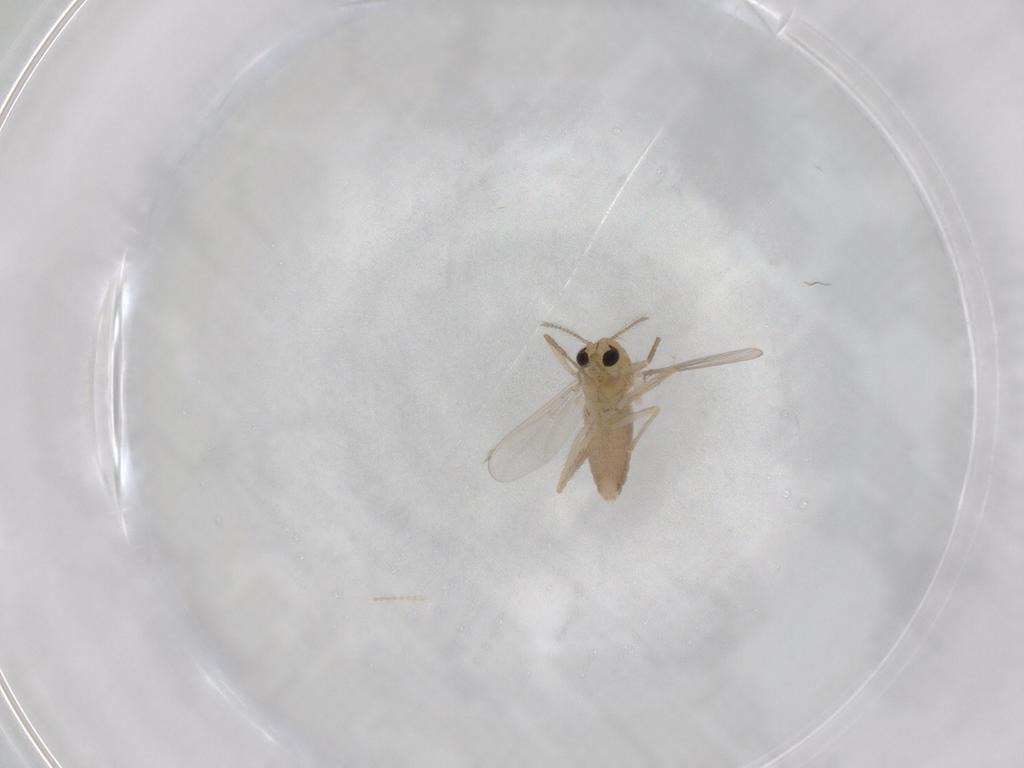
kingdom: Animalia
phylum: Arthropoda
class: Insecta
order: Diptera
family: Chironomidae
